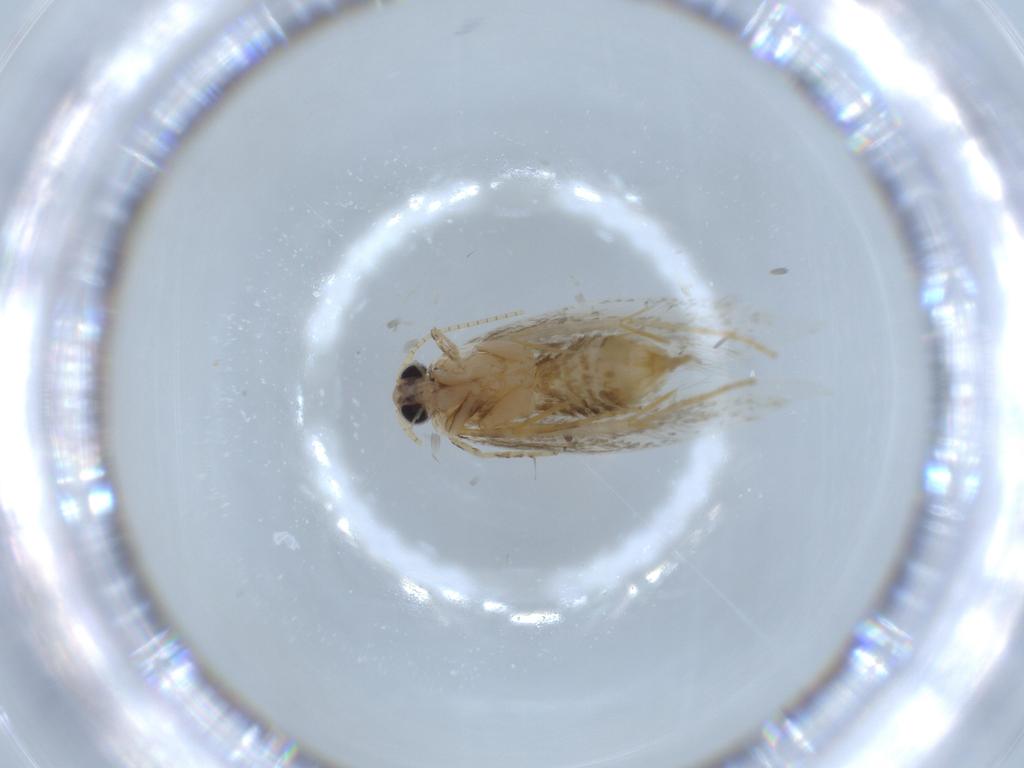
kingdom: Animalia
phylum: Arthropoda
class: Insecta
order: Lepidoptera
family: Tineidae
